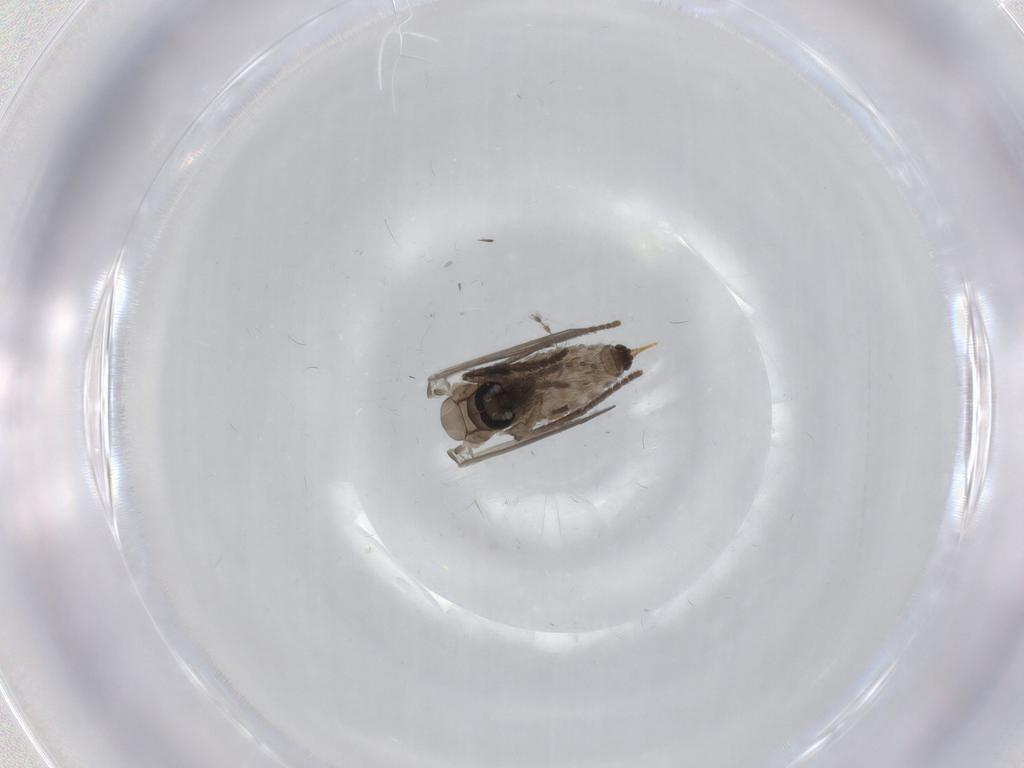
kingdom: Animalia
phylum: Arthropoda
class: Insecta
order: Diptera
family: Psychodidae
